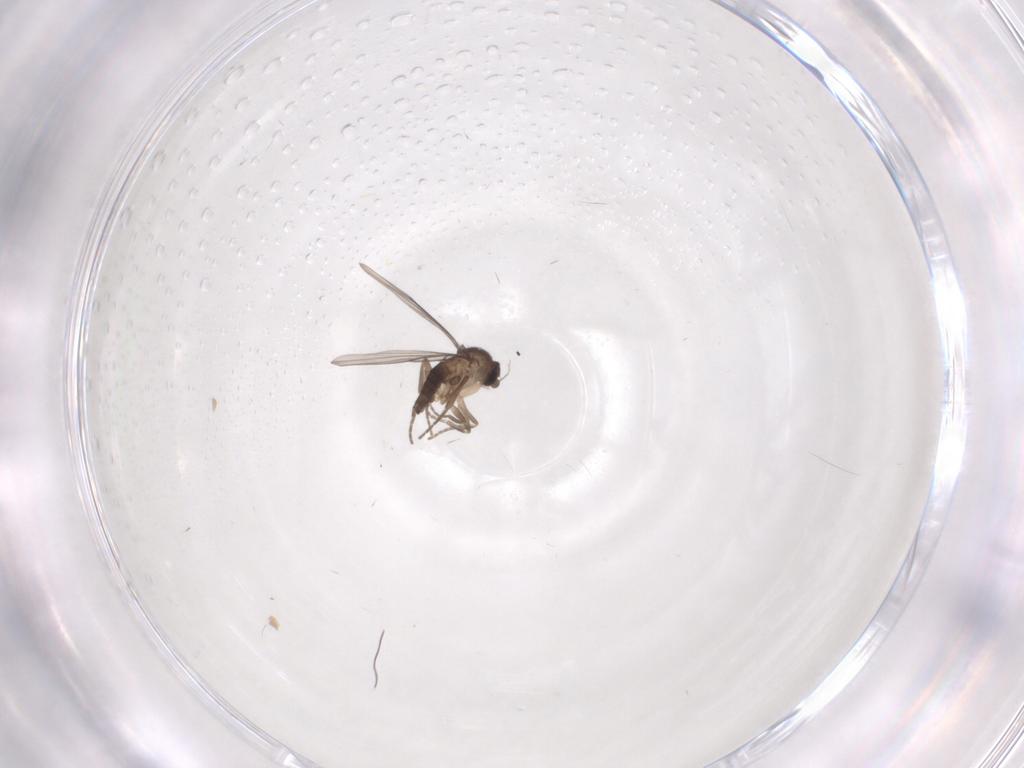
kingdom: Animalia
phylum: Arthropoda
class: Insecta
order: Diptera
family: Phoridae
